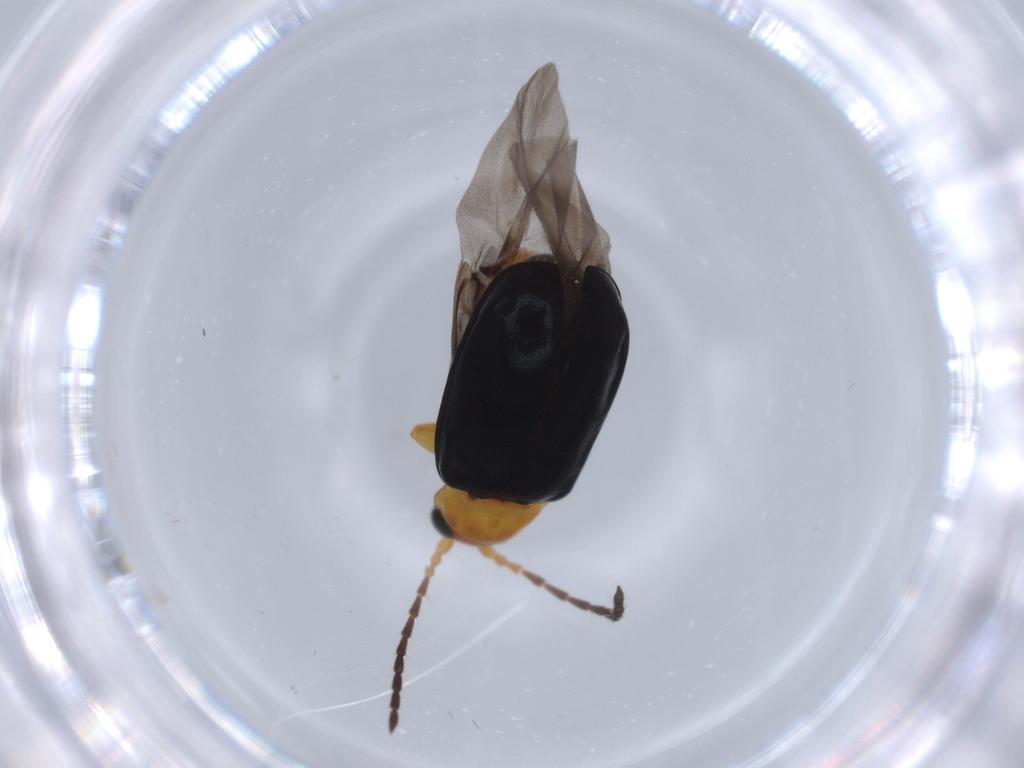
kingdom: Animalia
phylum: Arthropoda
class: Insecta
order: Coleoptera
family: Chrysomelidae
